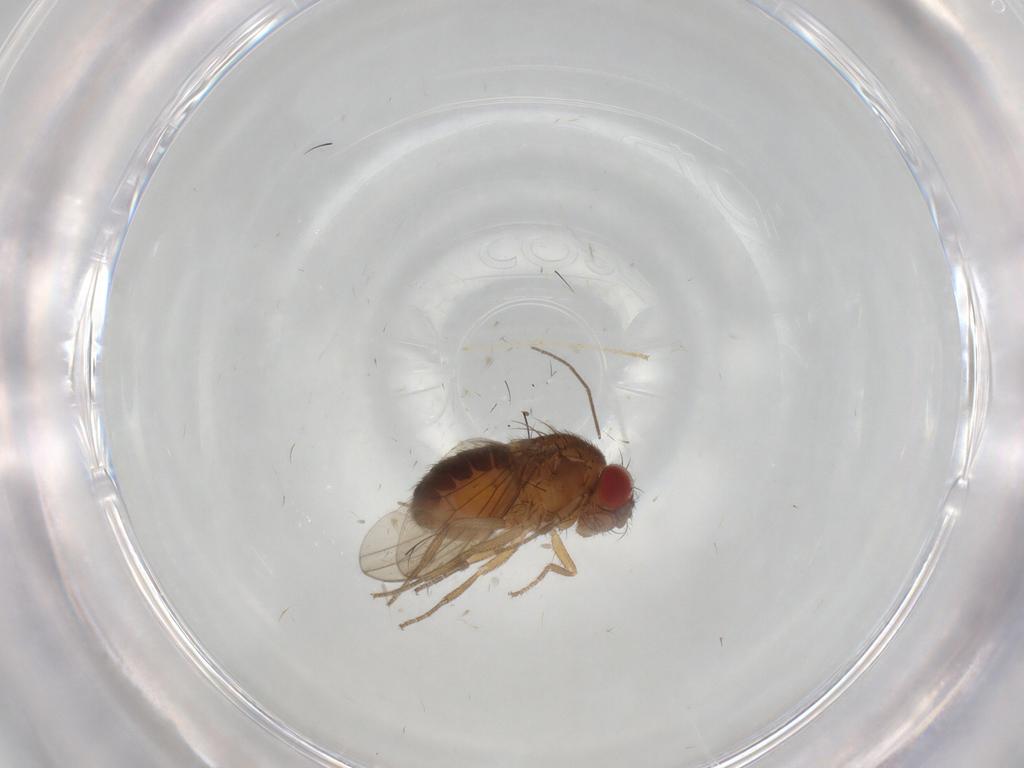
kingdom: Animalia
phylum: Arthropoda
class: Insecta
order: Diptera
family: Drosophilidae
